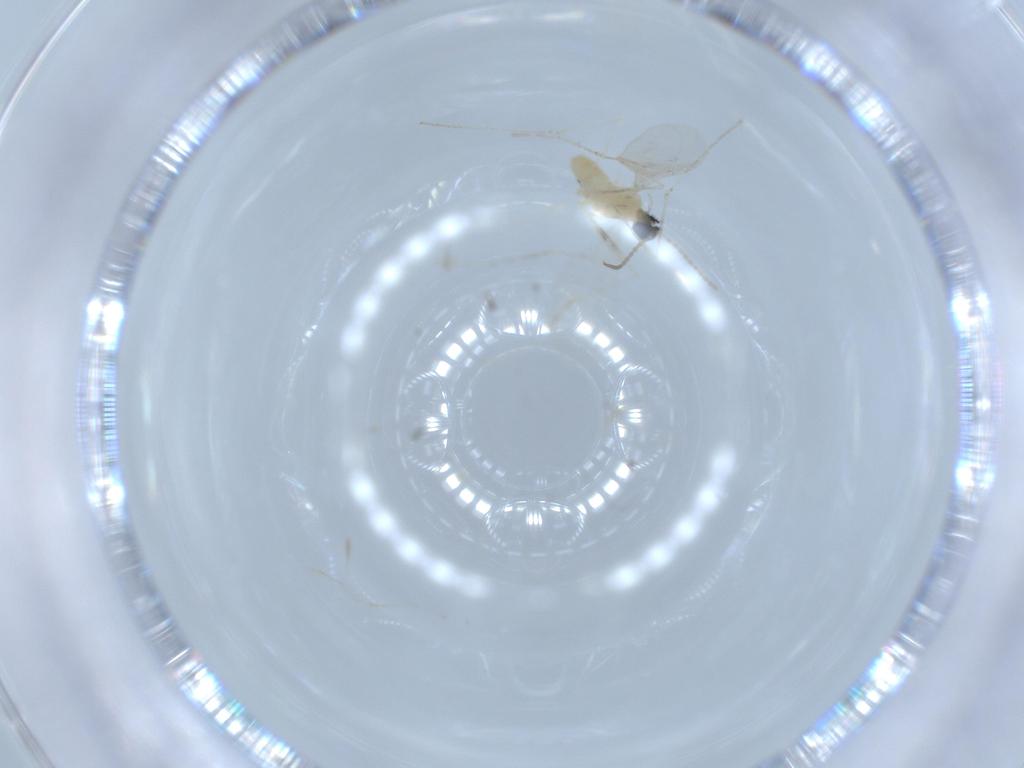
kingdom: Animalia
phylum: Arthropoda
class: Insecta
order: Diptera
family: Cecidomyiidae
